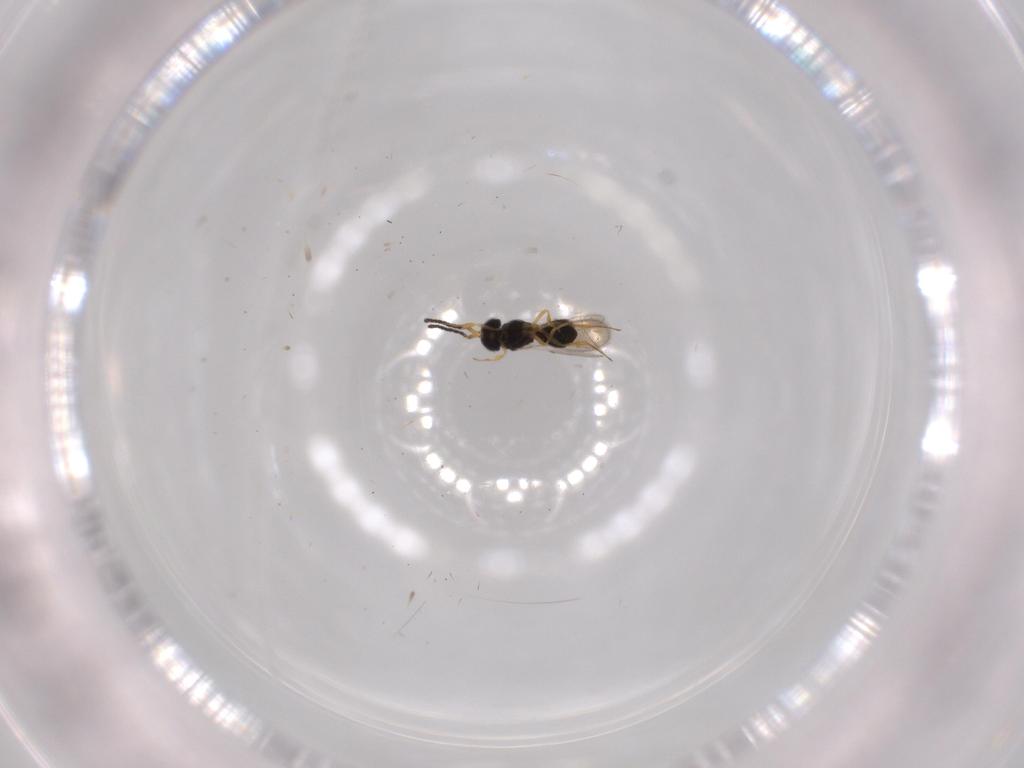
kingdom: Animalia
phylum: Arthropoda
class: Insecta
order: Hymenoptera
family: Scelionidae
